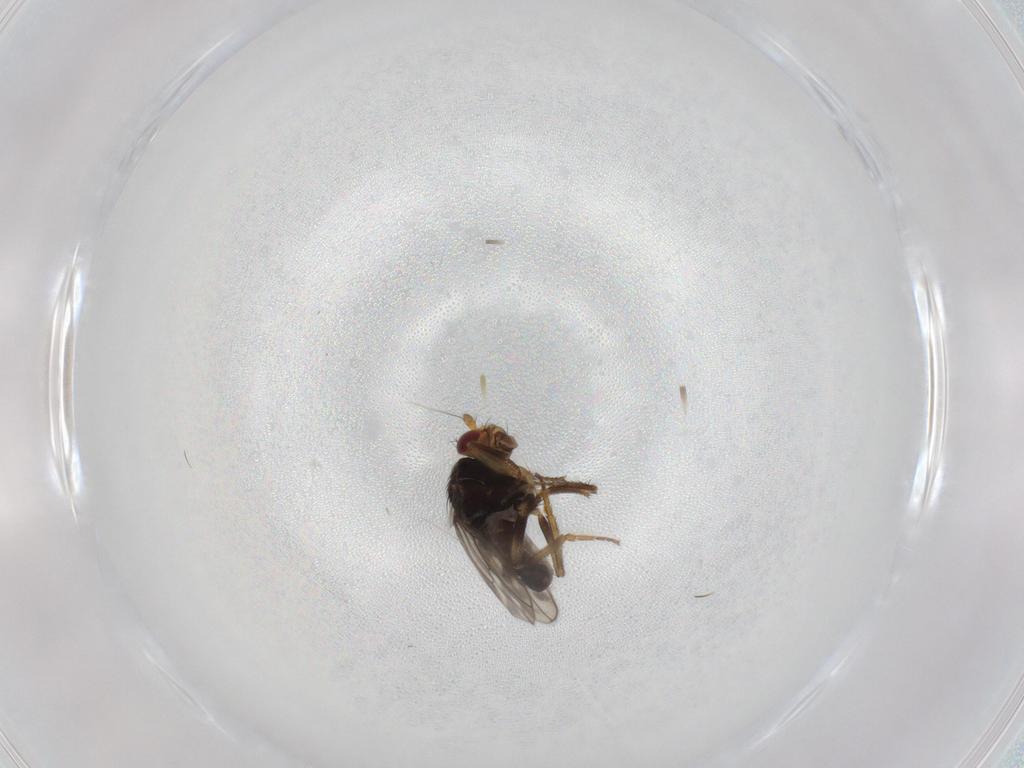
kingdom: Animalia
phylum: Arthropoda
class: Insecta
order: Diptera
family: Sphaeroceridae
